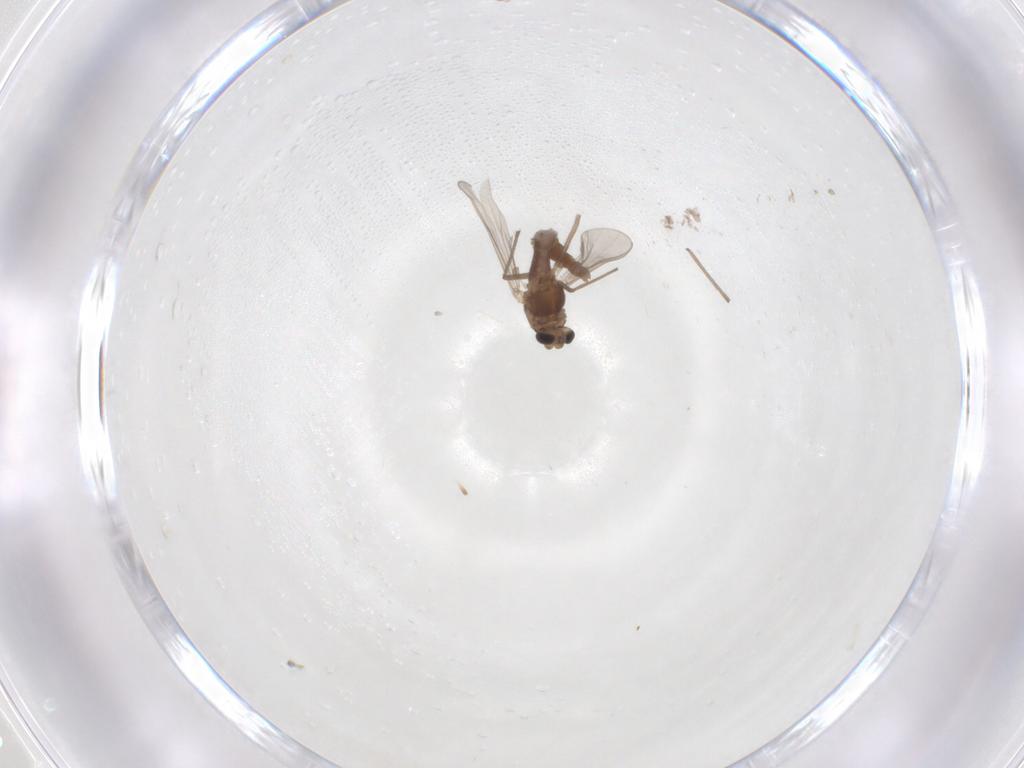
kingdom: Animalia
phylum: Arthropoda
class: Insecta
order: Diptera
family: Chironomidae
